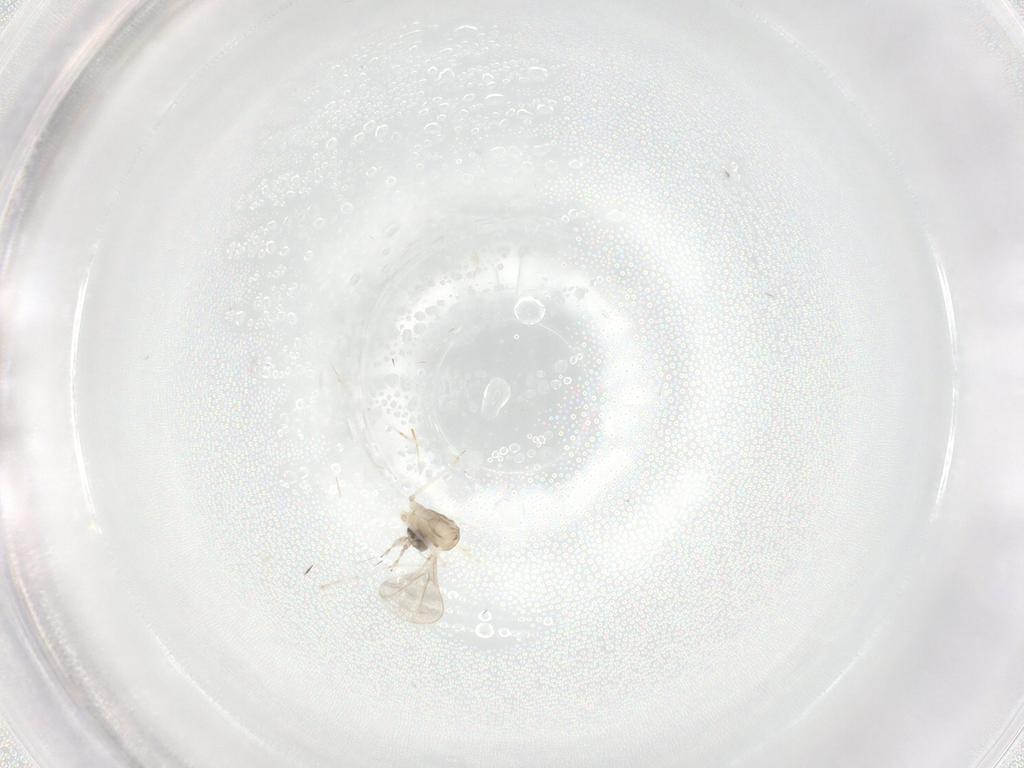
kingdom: Animalia
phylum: Arthropoda
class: Insecta
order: Diptera
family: Cecidomyiidae
